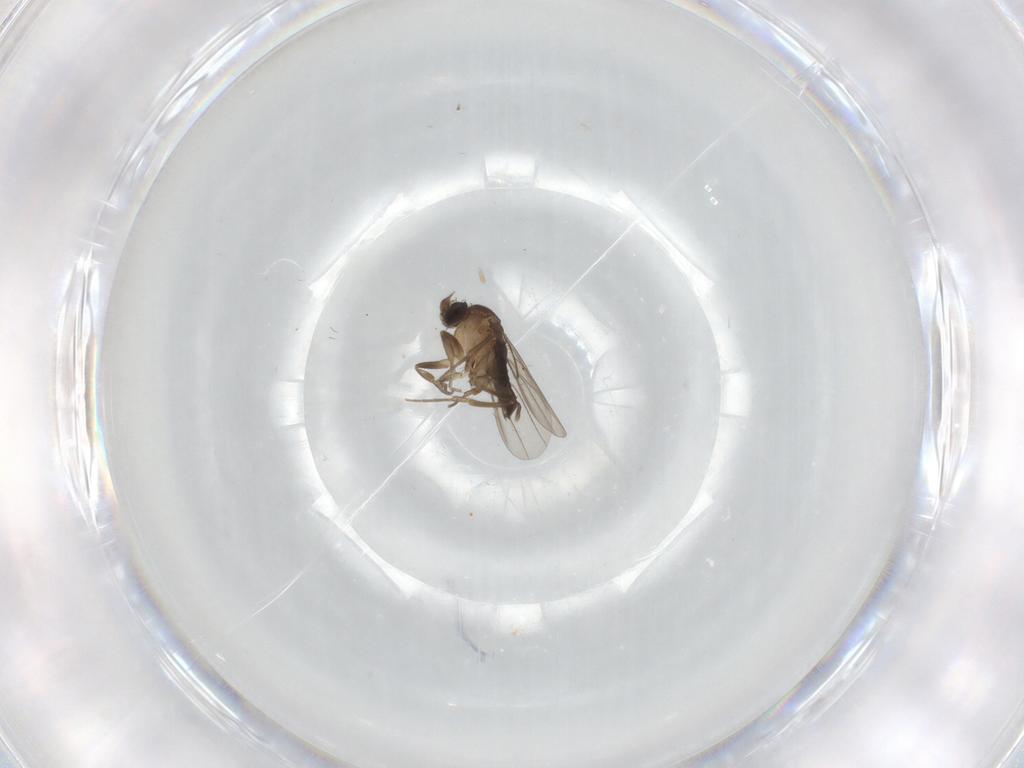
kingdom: Animalia
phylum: Arthropoda
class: Insecta
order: Diptera
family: Phoridae
